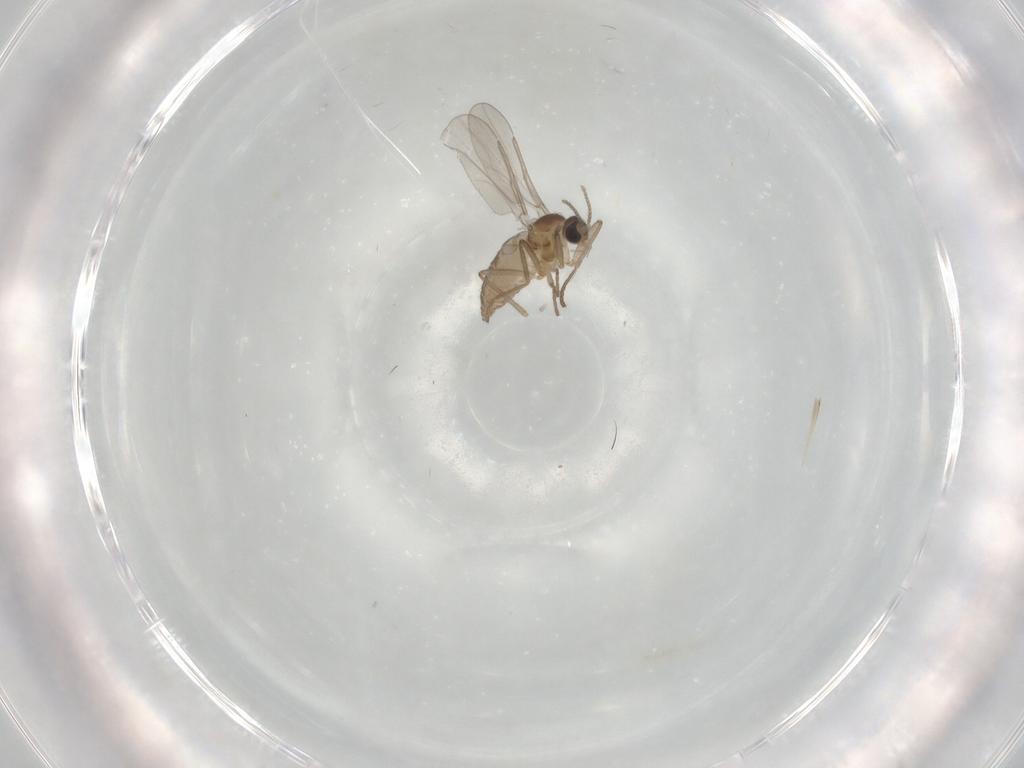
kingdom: Animalia
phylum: Arthropoda
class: Insecta
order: Diptera
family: Cecidomyiidae
